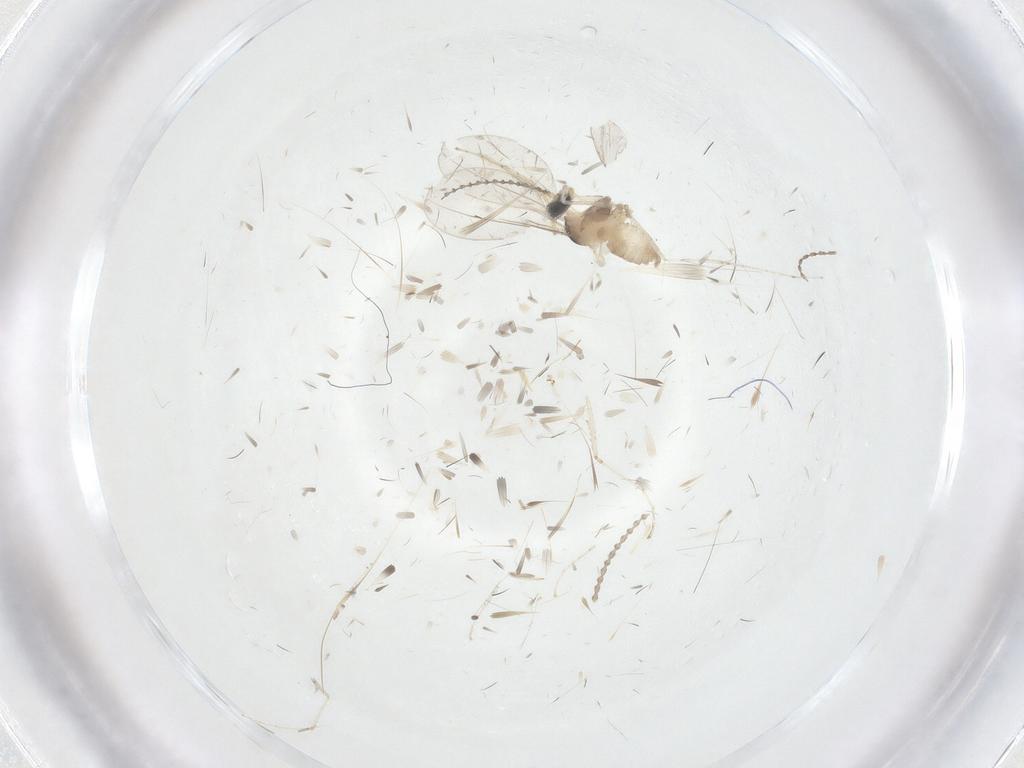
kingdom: Animalia
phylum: Arthropoda
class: Insecta
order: Diptera
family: Cecidomyiidae
